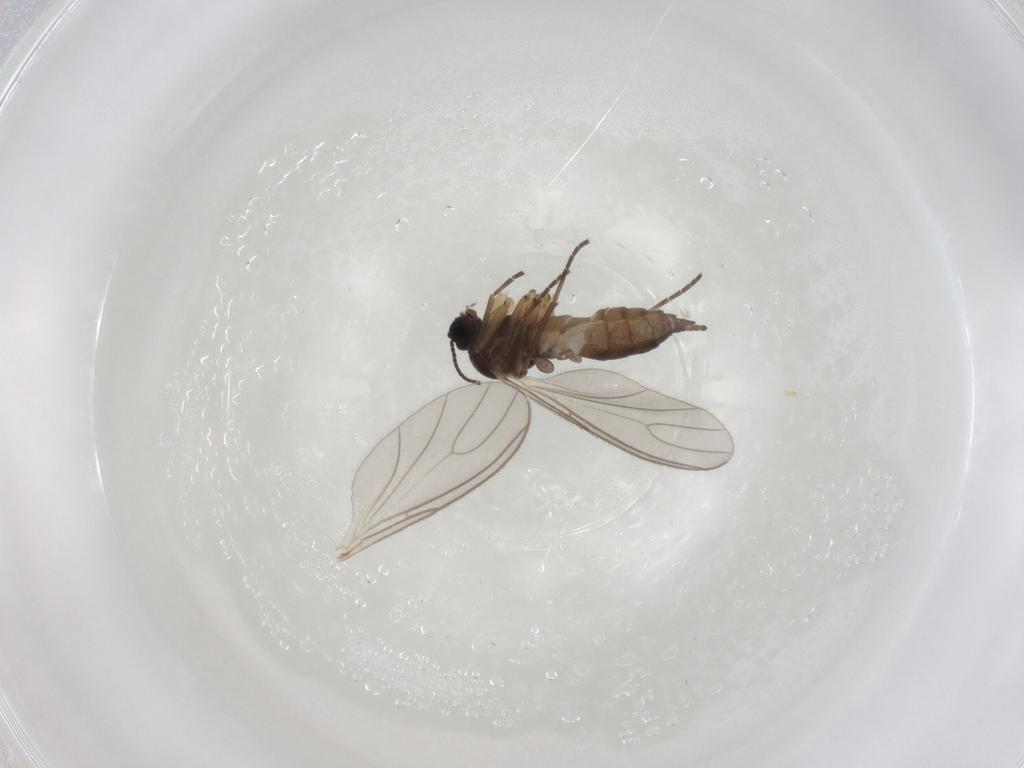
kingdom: Animalia
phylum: Arthropoda
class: Insecta
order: Diptera
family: Sciaridae
